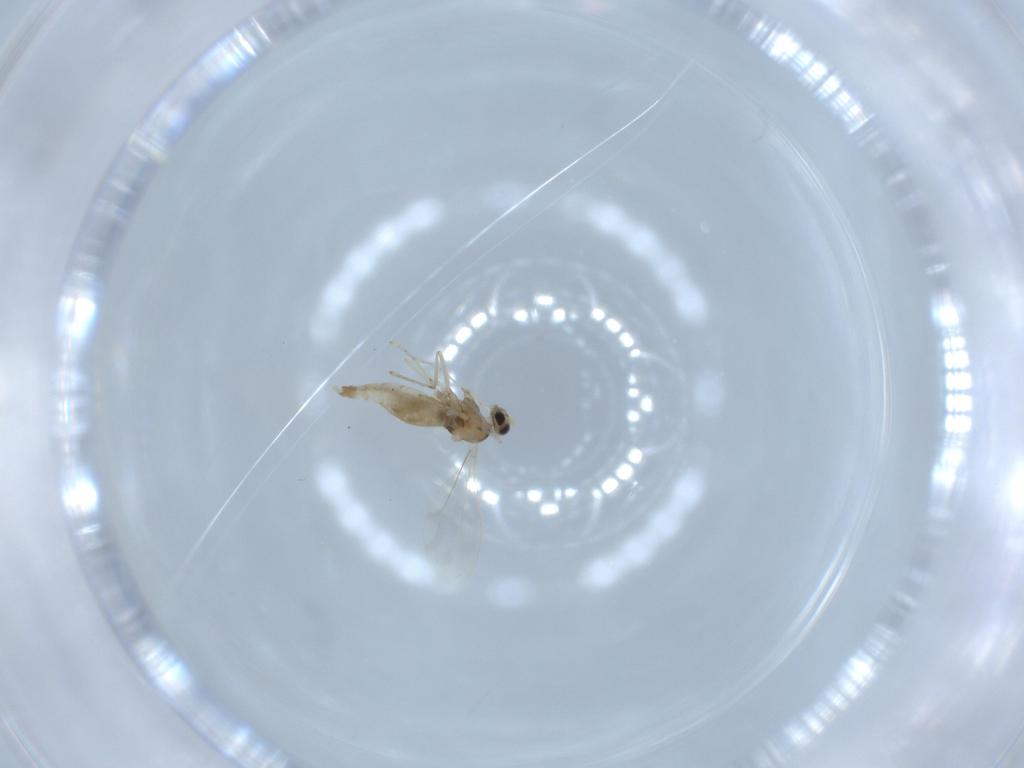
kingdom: Animalia
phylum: Arthropoda
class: Insecta
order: Diptera
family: Cecidomyiidae
